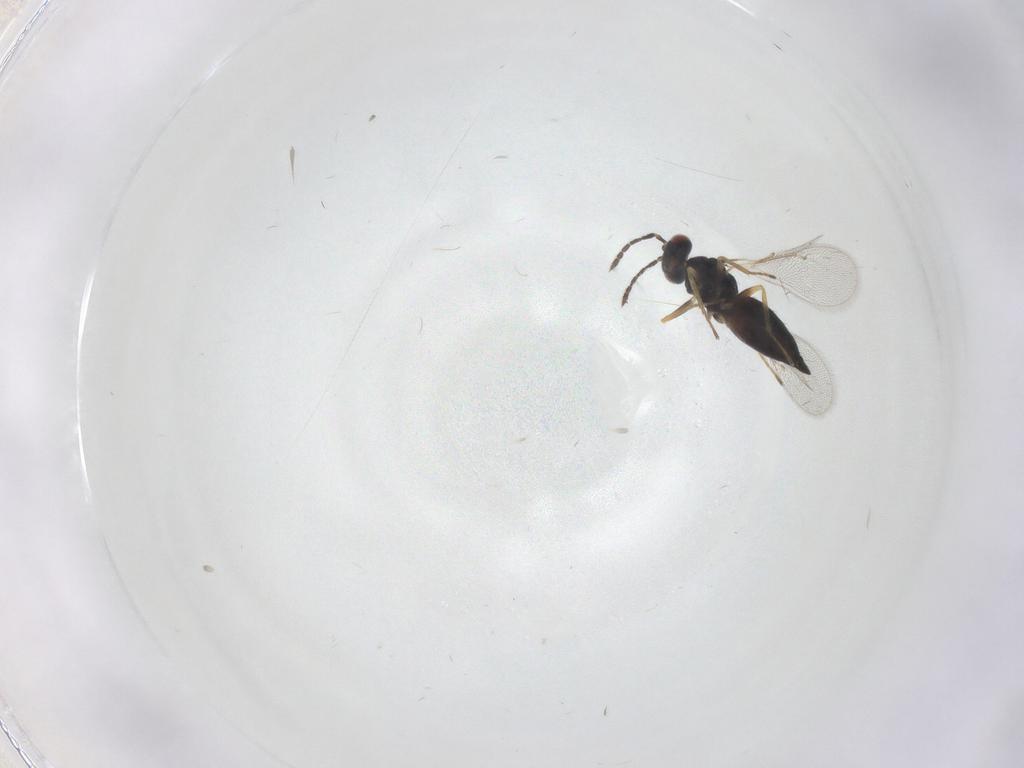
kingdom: Animalia
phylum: Arthropoda
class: Insecta
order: Hymenoptera
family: Eulophidae
